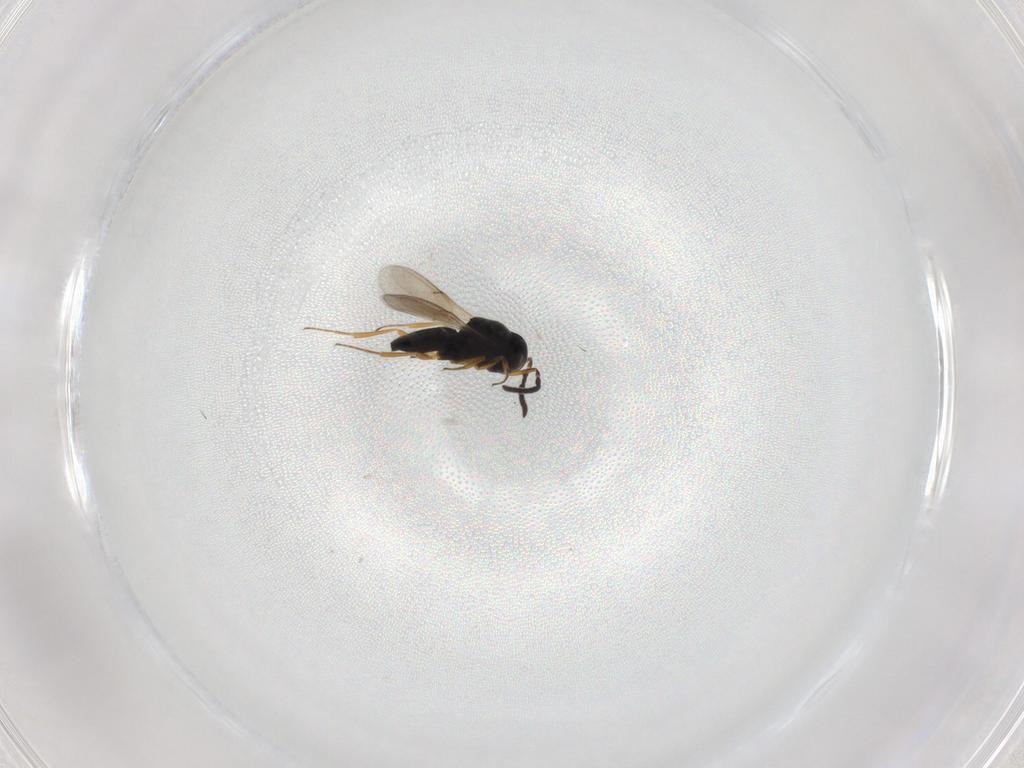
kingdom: Animalia
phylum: Arthropoda
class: Insecta
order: Hymenoptera
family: Scelionidae
